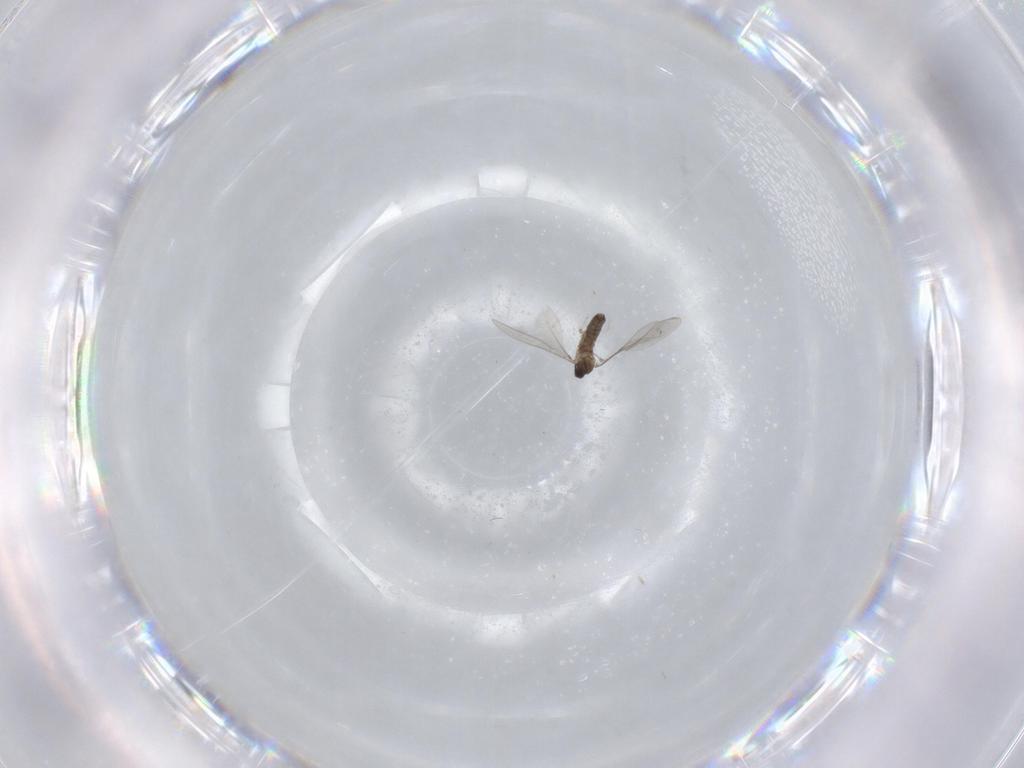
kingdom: Animalia
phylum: Arthropoda
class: Insecta
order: Diptera
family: Cecidomyiidae
